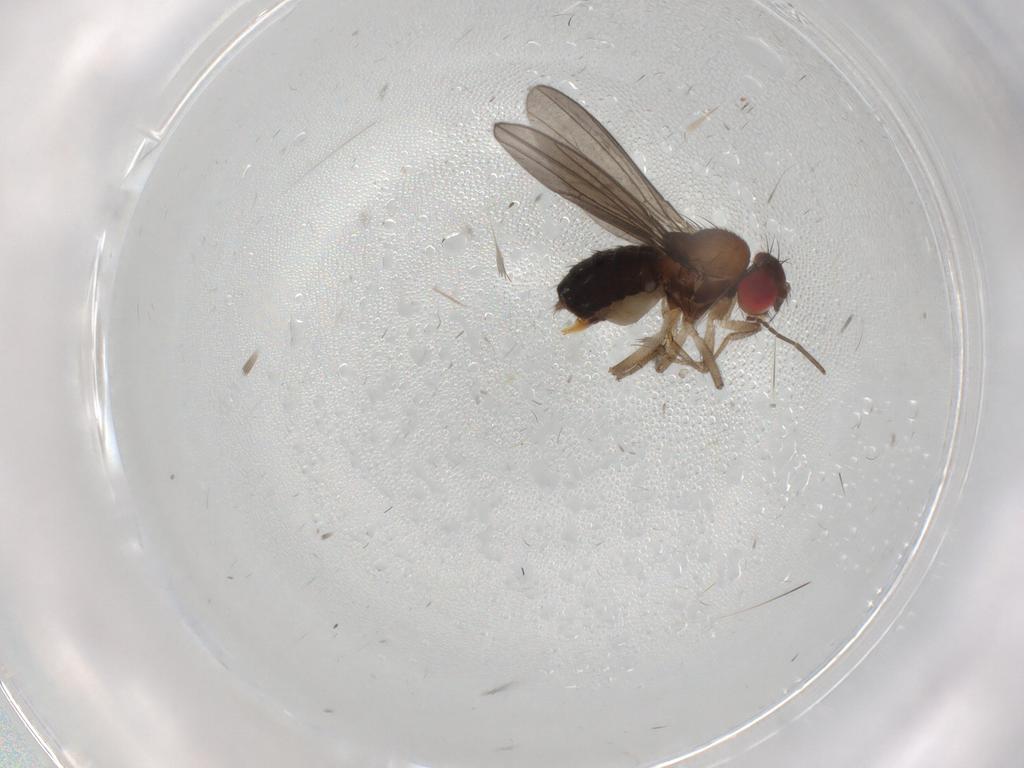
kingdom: Animalia
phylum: Arthropoda
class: Insecta
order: Diptera
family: Drosophilidae
